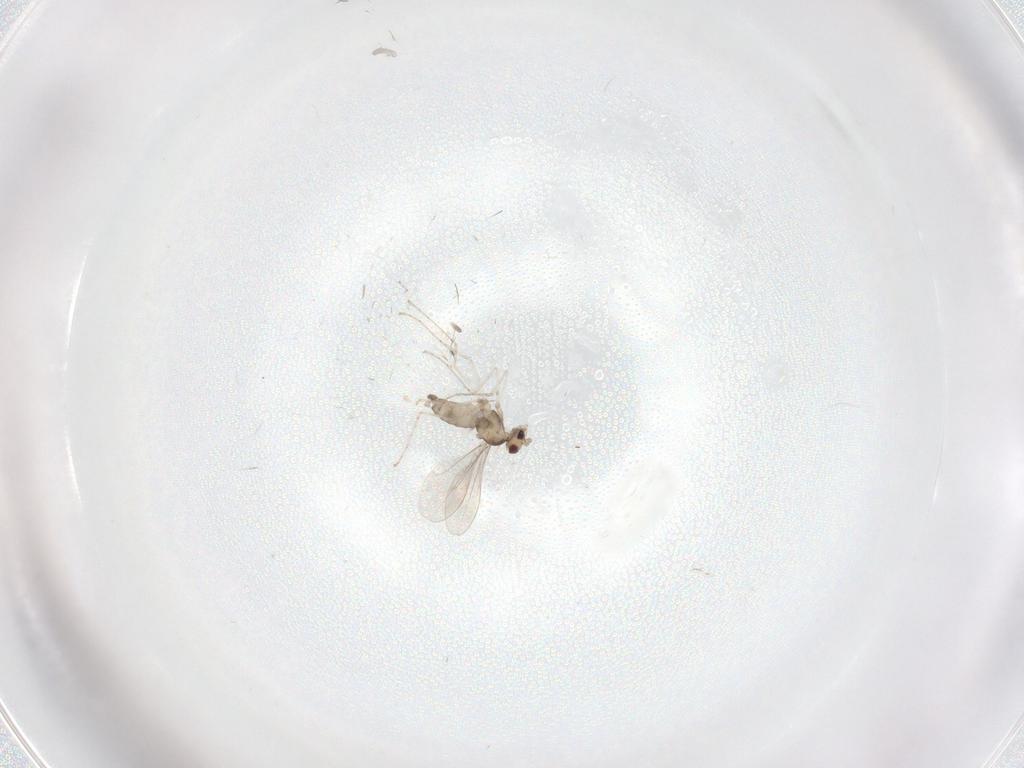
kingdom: Animalia
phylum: Arthropoda
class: Insecta
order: Diptera
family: Cecidomyiidae
